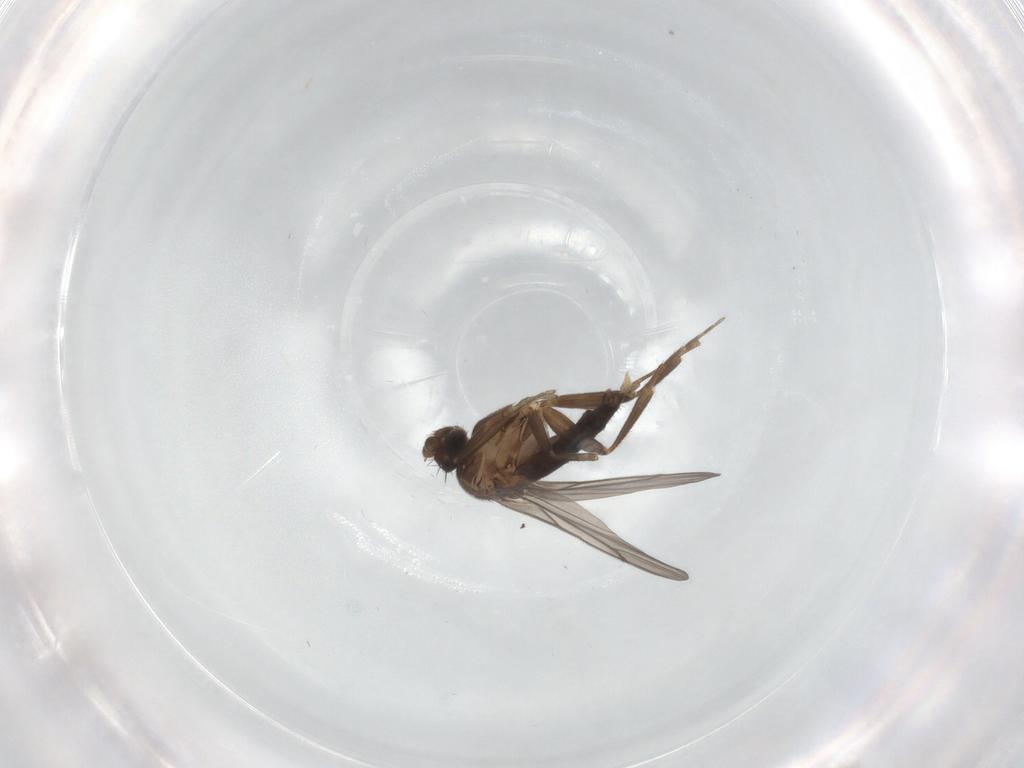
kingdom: Animalia
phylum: Arthropoda
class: Insecta
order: Diptera
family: Phoridae
